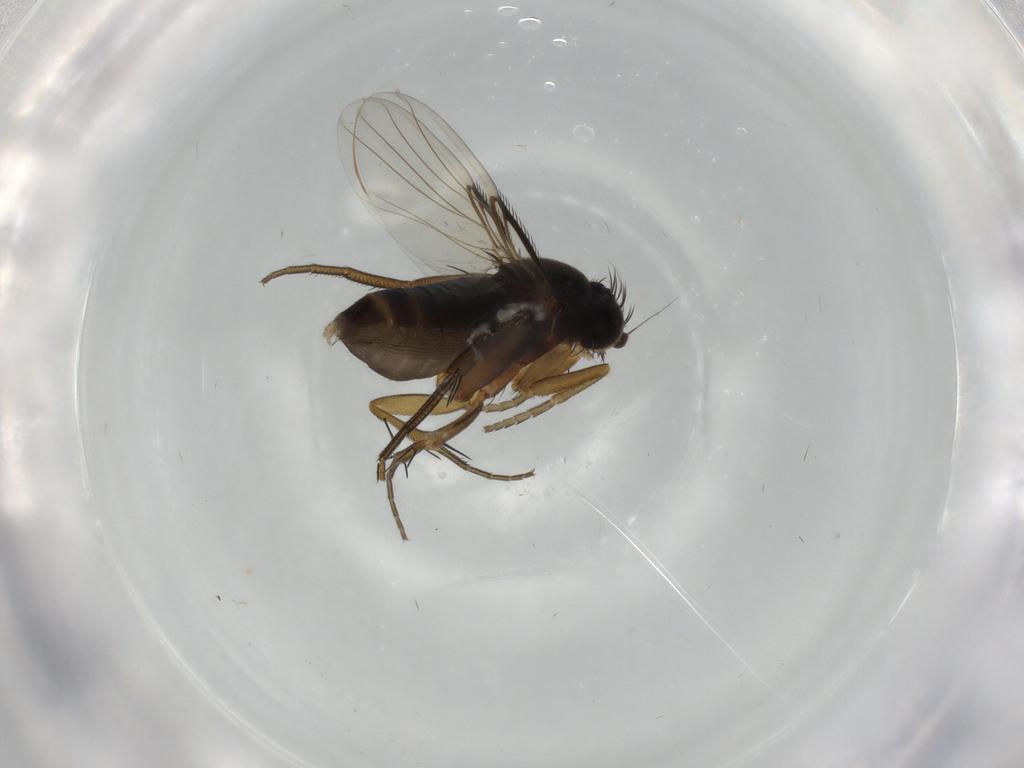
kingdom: Animalia
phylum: Arthropoda
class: Insecta
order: Diptera
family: Phoridae
